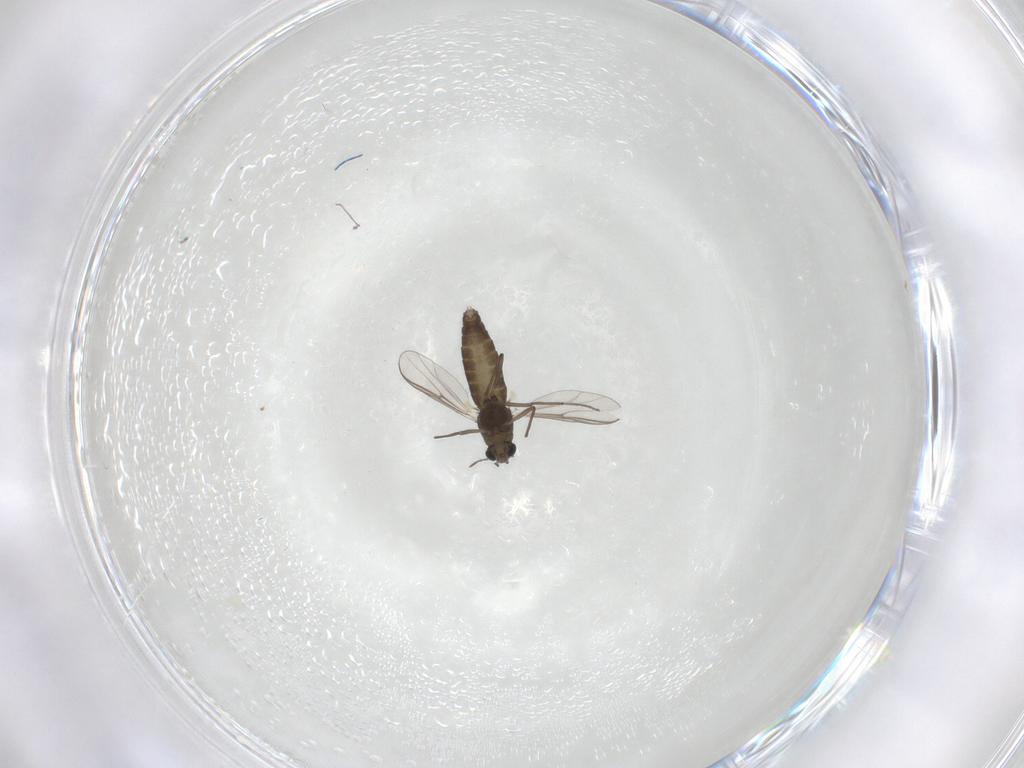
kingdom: Animalia
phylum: Arthropoda
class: Insecta
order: Diptera
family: Chironomidae
